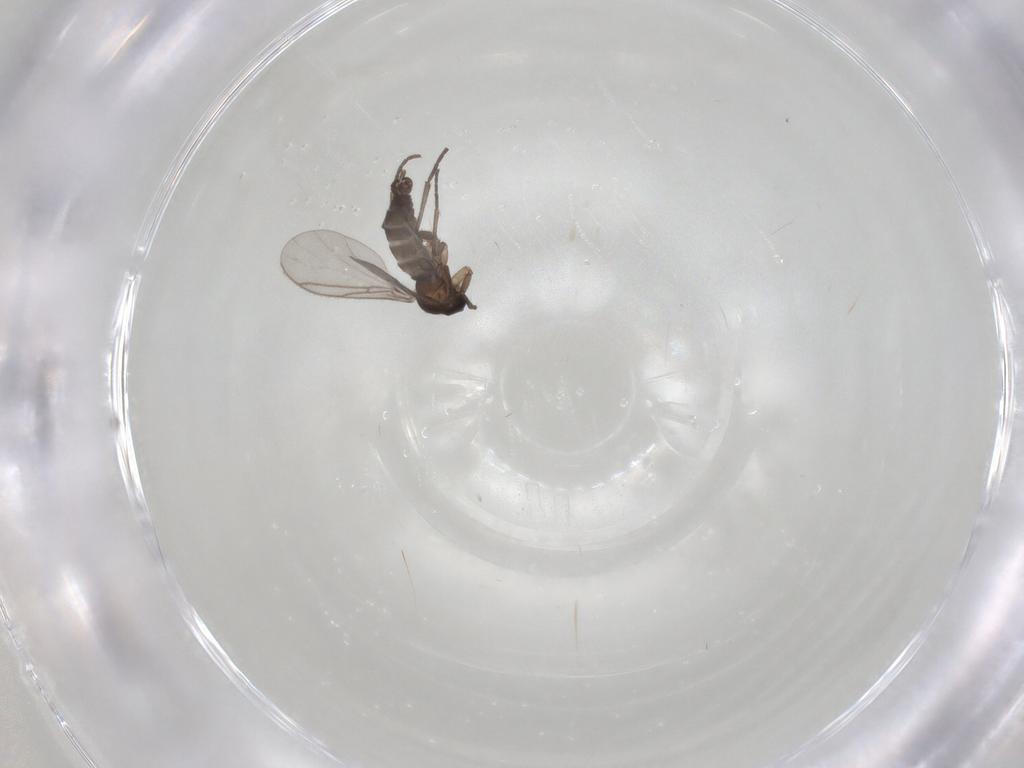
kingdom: Animalia
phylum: Arthropoda
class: Insecta
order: Diptera
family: Sciaridae
